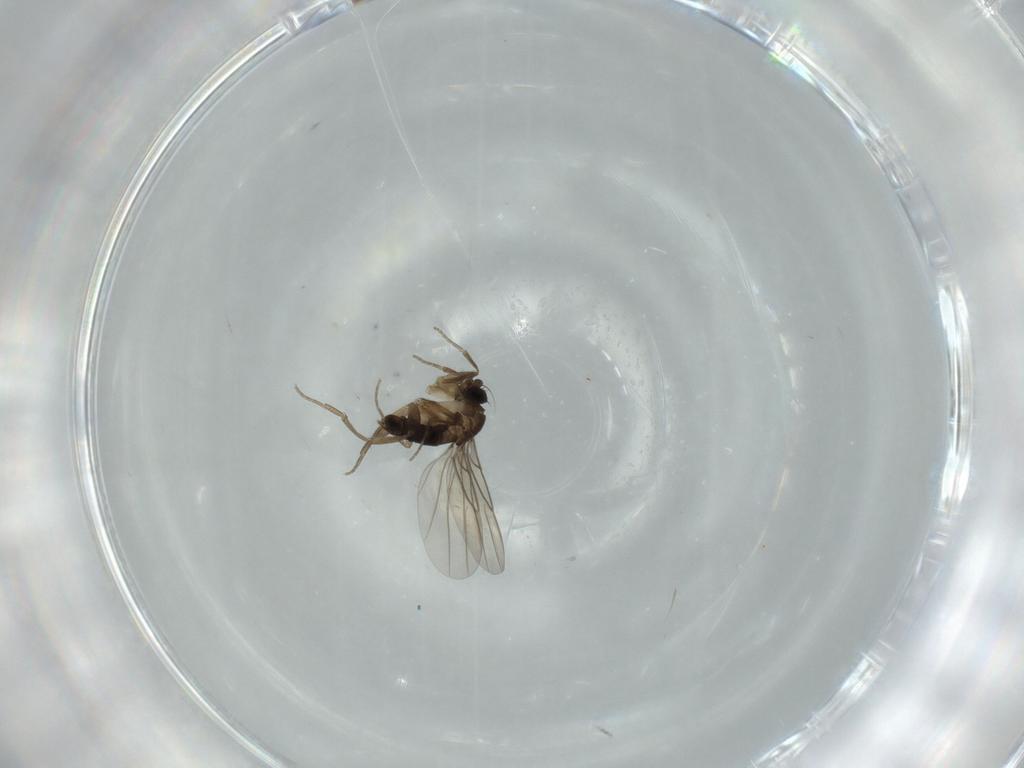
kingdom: Animalia
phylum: Arthropoda
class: Insecta
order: Diptera
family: Phoridae
